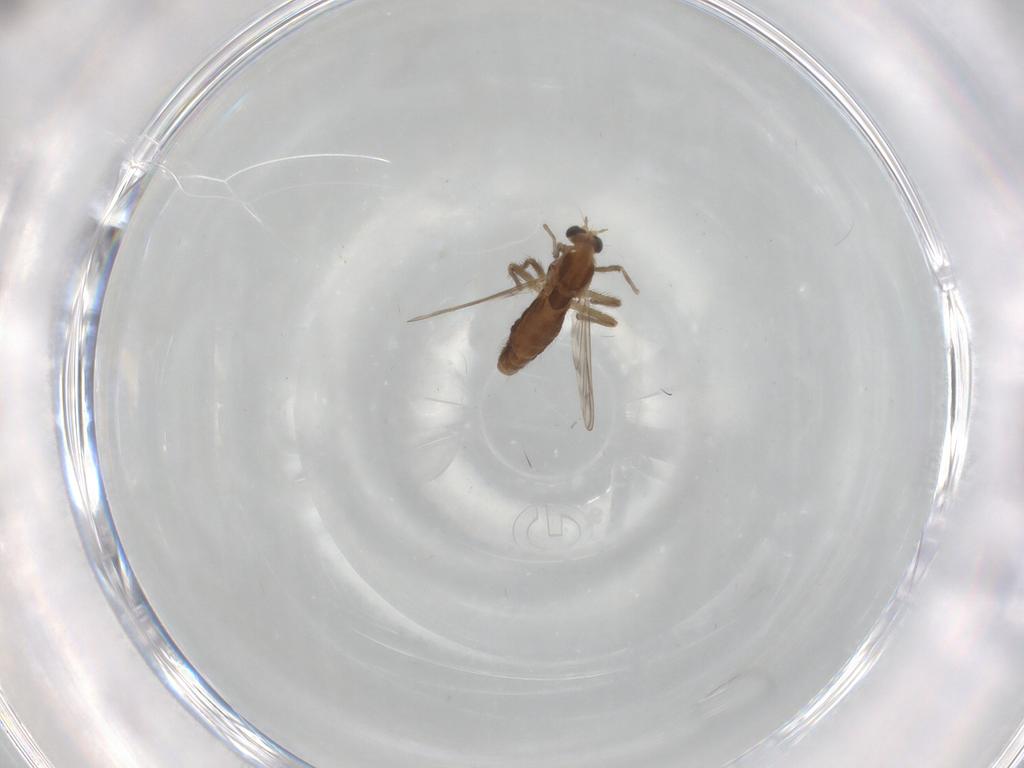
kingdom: Animalia
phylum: Arthropoda
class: Insecta
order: Diptera
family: Chironomidae
